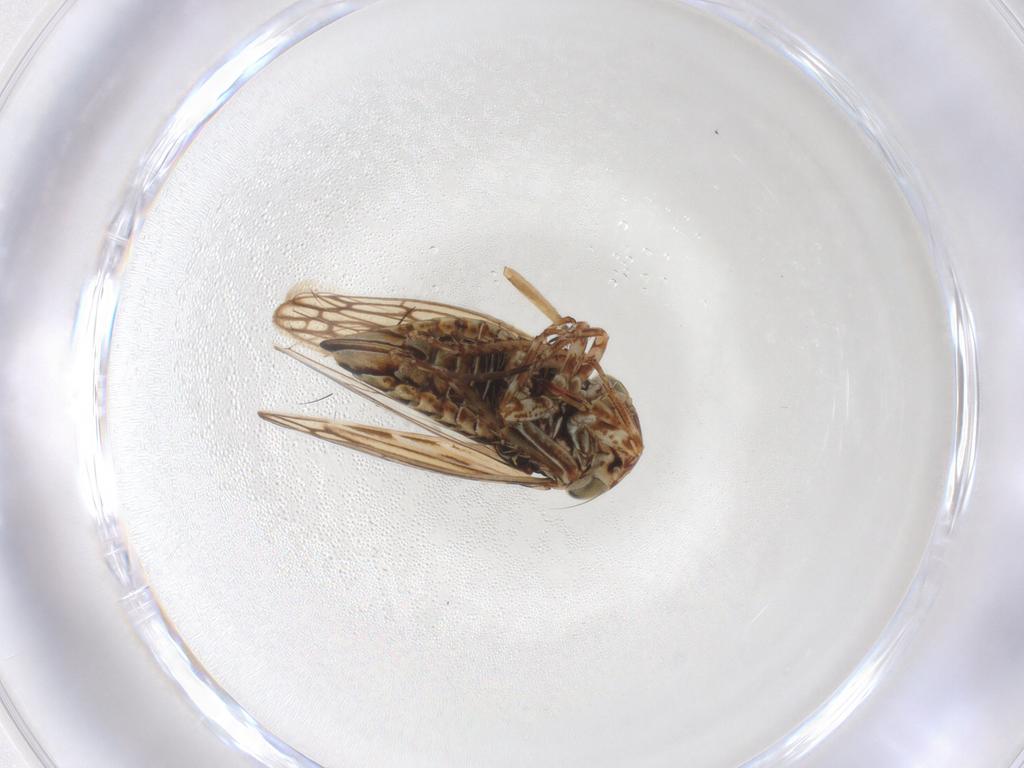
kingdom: Animalia
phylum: Arthropoda
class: Insecta
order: Hemiptera
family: Cicadellidae
